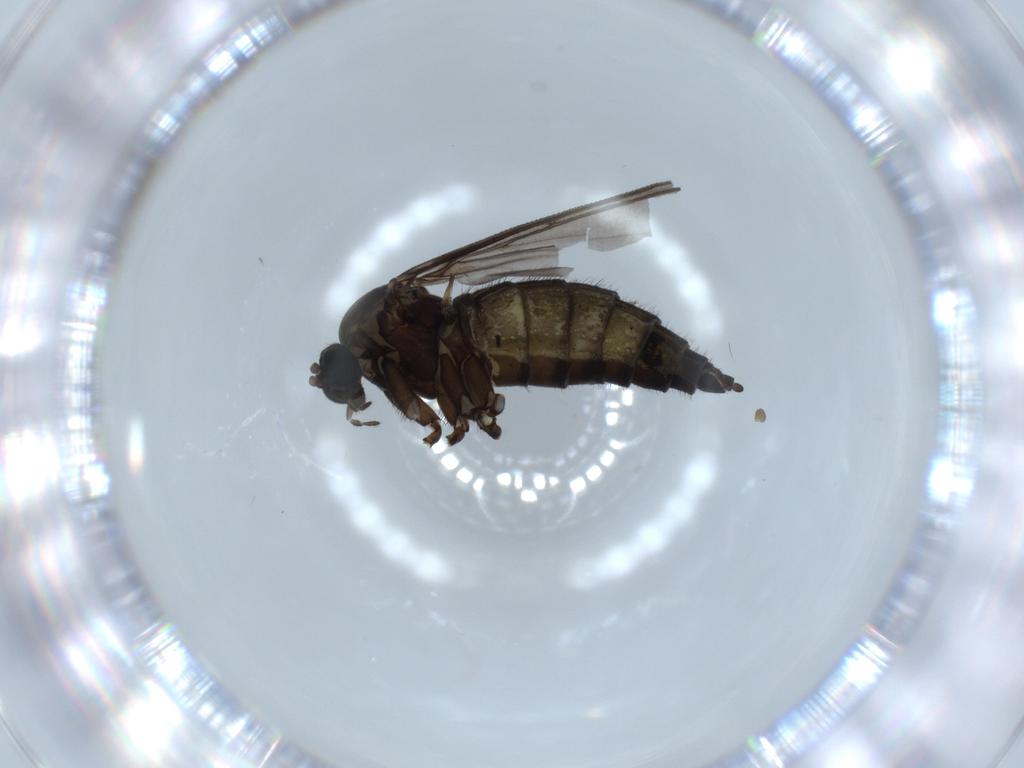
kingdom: Animalia
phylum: Arthropoda
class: Insecta
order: Diptera
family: Sciaridae
